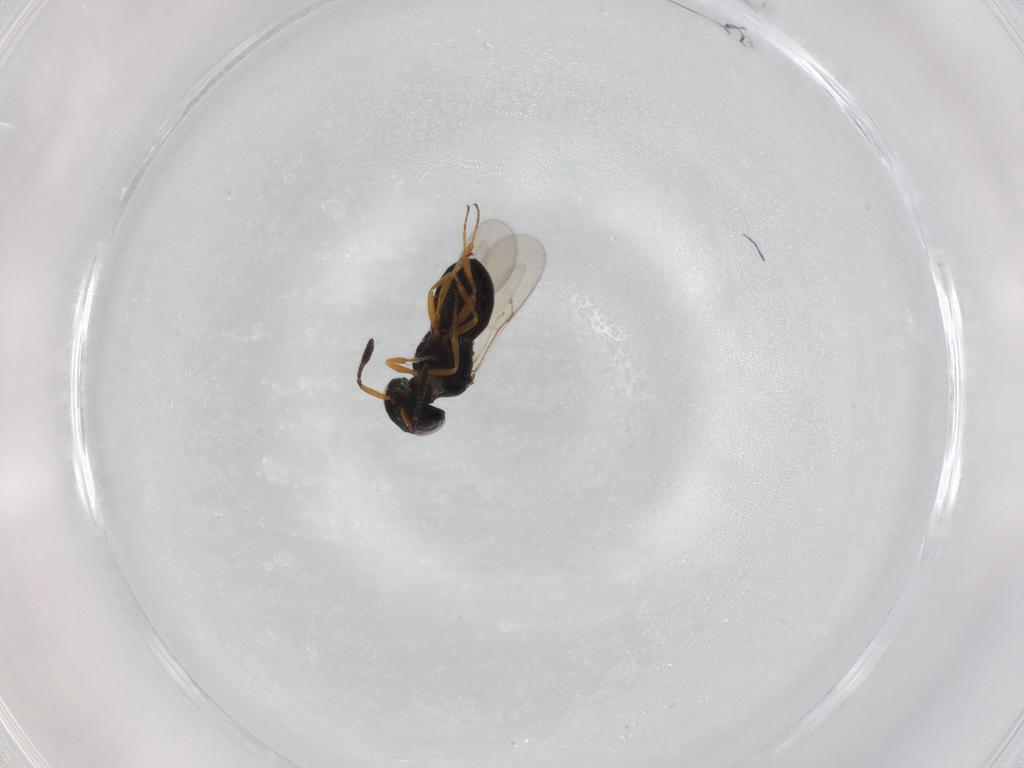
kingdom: Animalia
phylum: Arthropoda
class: Insecta
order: Hymenoptera
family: Scelionidae
